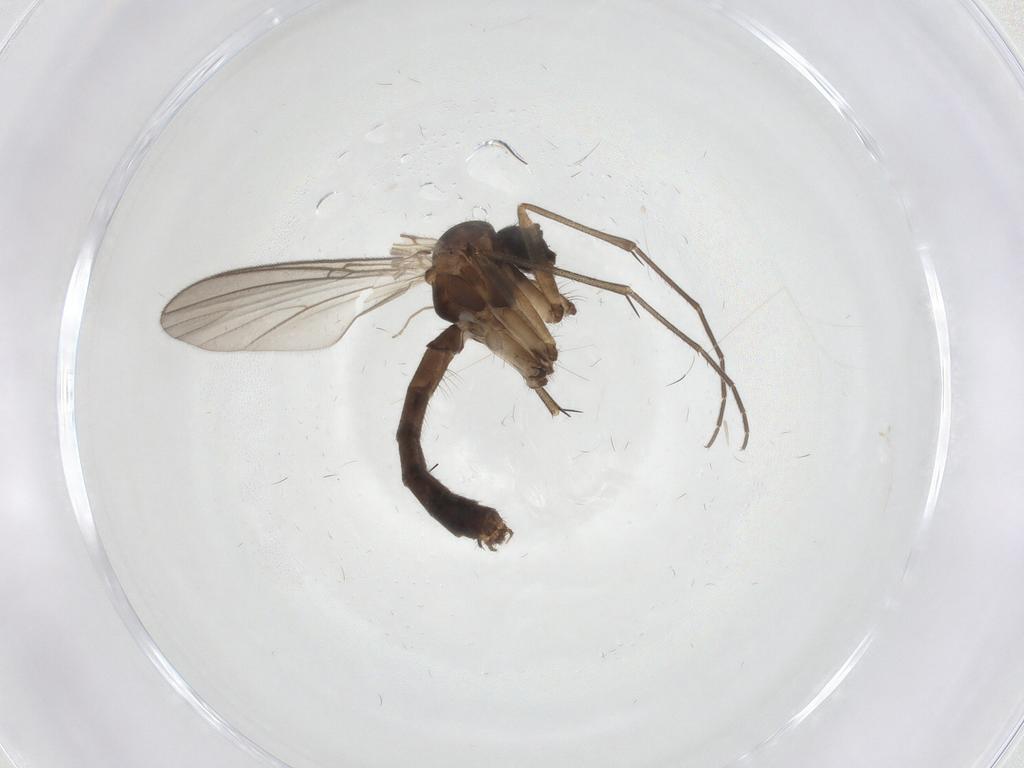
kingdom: Animalia
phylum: Arthropoda
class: Insecta
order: Diptera
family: Mycetophilidae
